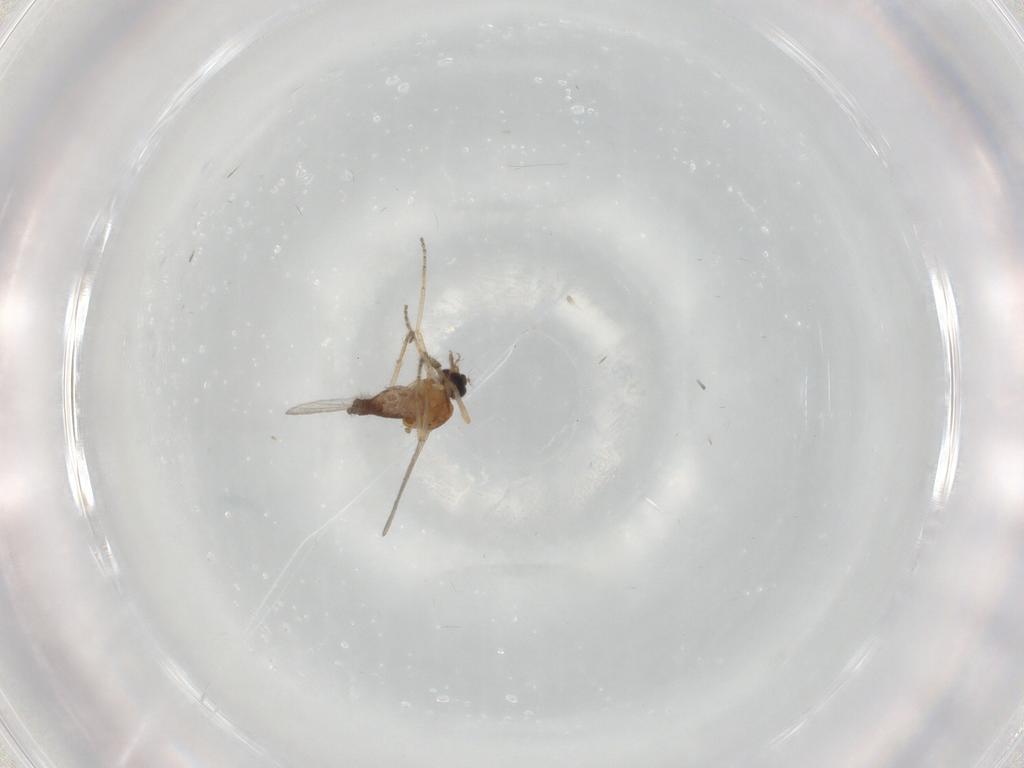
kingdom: Animalia
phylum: Arthropoda
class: Insecta
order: Diptera
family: Ceratopogonidae
